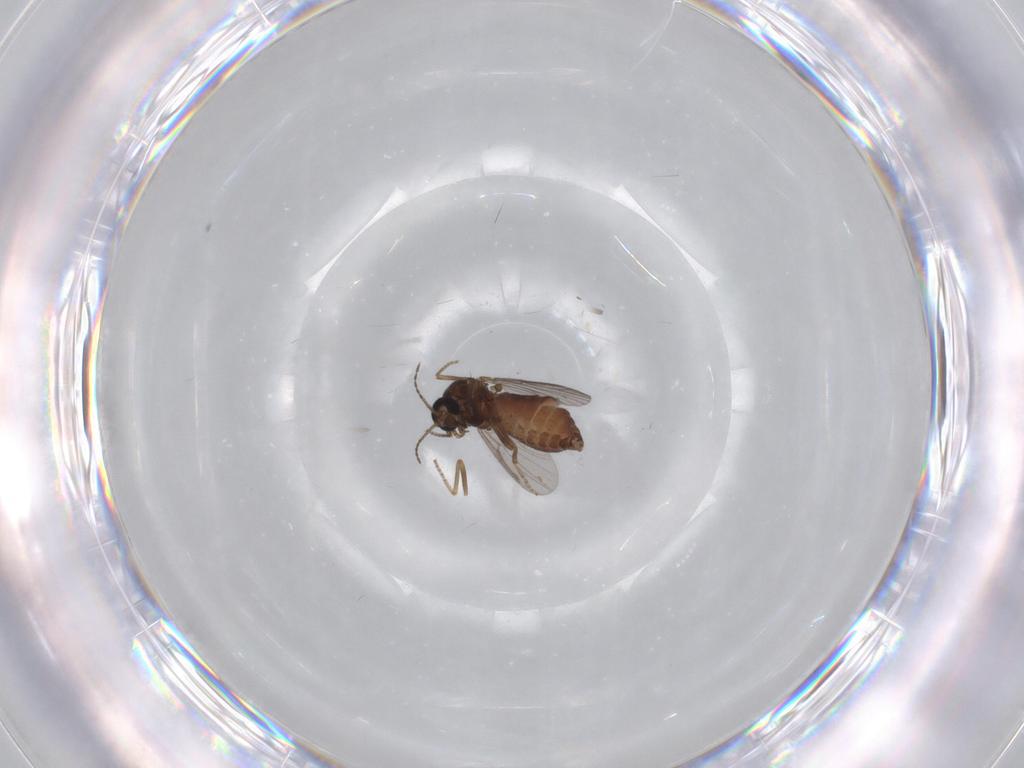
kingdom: Animalia
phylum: Arthropoda
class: Insecta
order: Diptera
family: Ceratopogonidae
